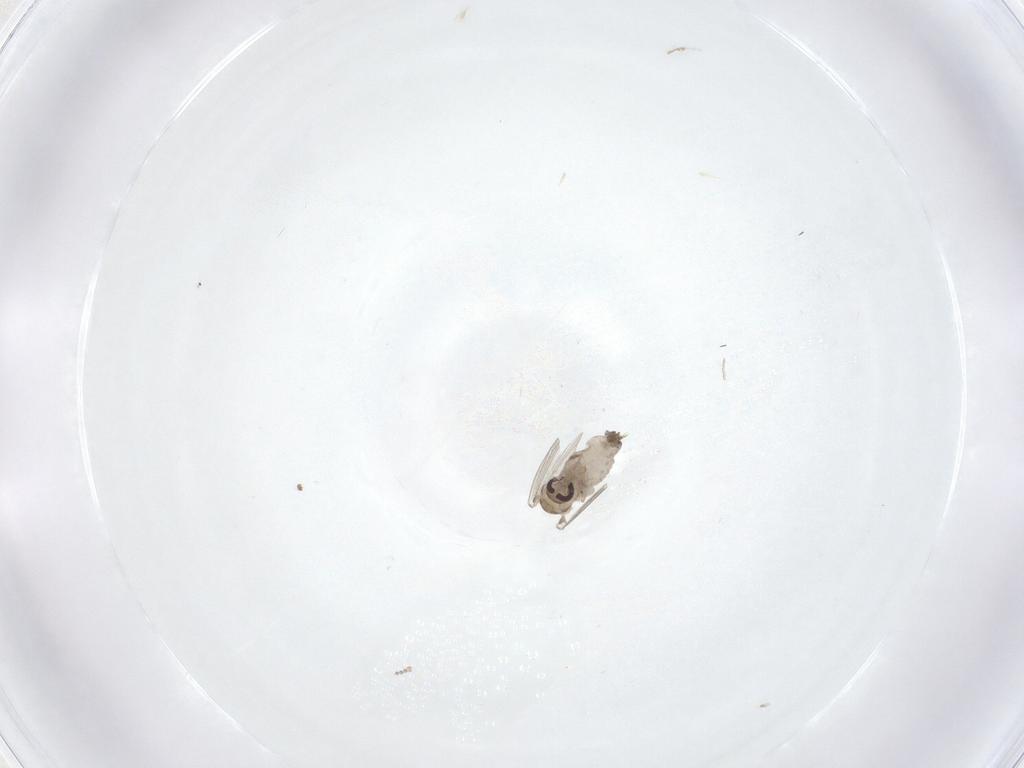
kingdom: Animalia
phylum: Arthropoda
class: Insecta
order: Diptera
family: Psychodidae
